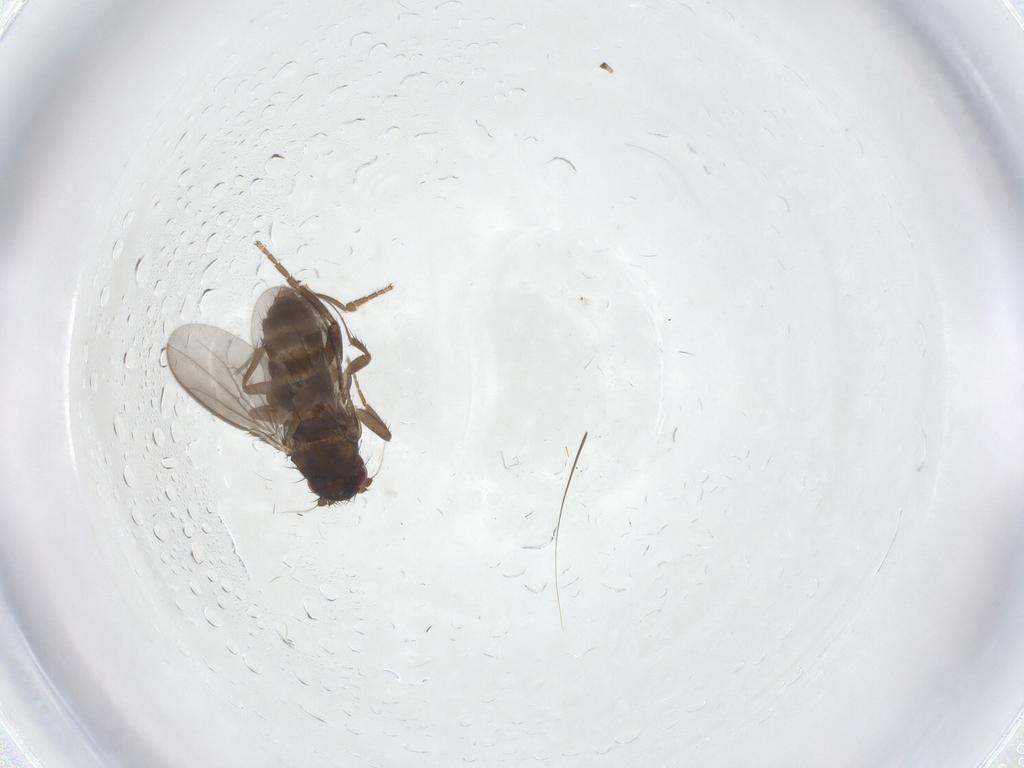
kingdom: Animalia
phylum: Arthropoda
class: Insecta
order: Diptera
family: Sphaeroceridae
